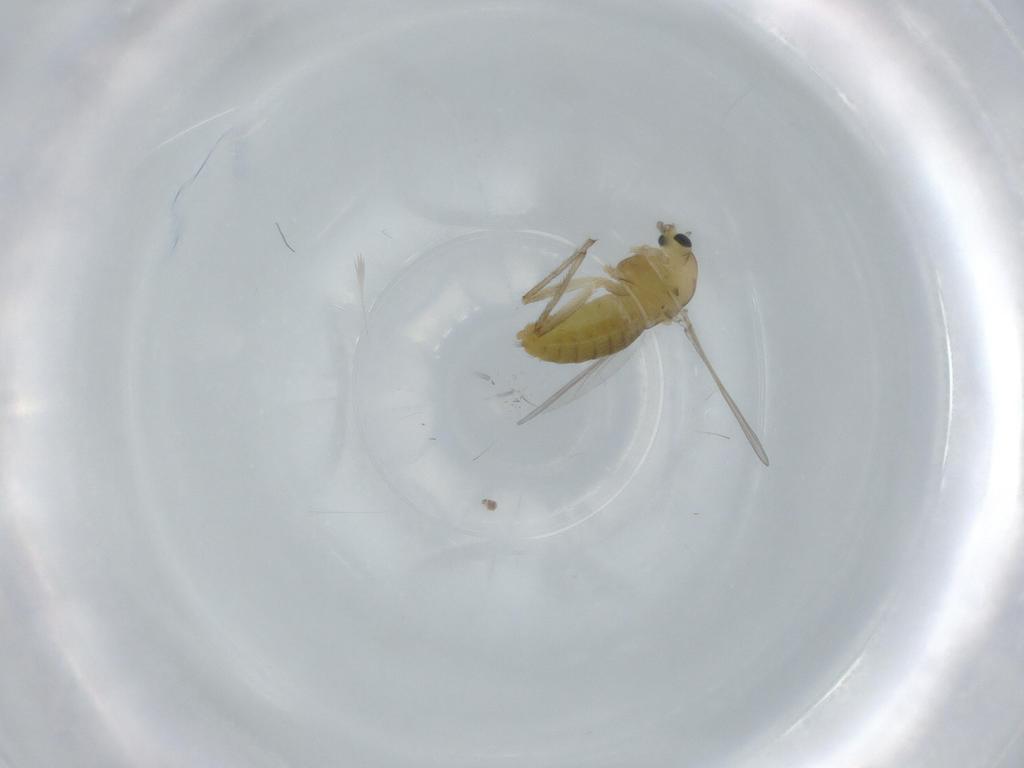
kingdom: Animalia
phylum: Arthropoda
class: Insecta
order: Diptera
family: Chironomidae
